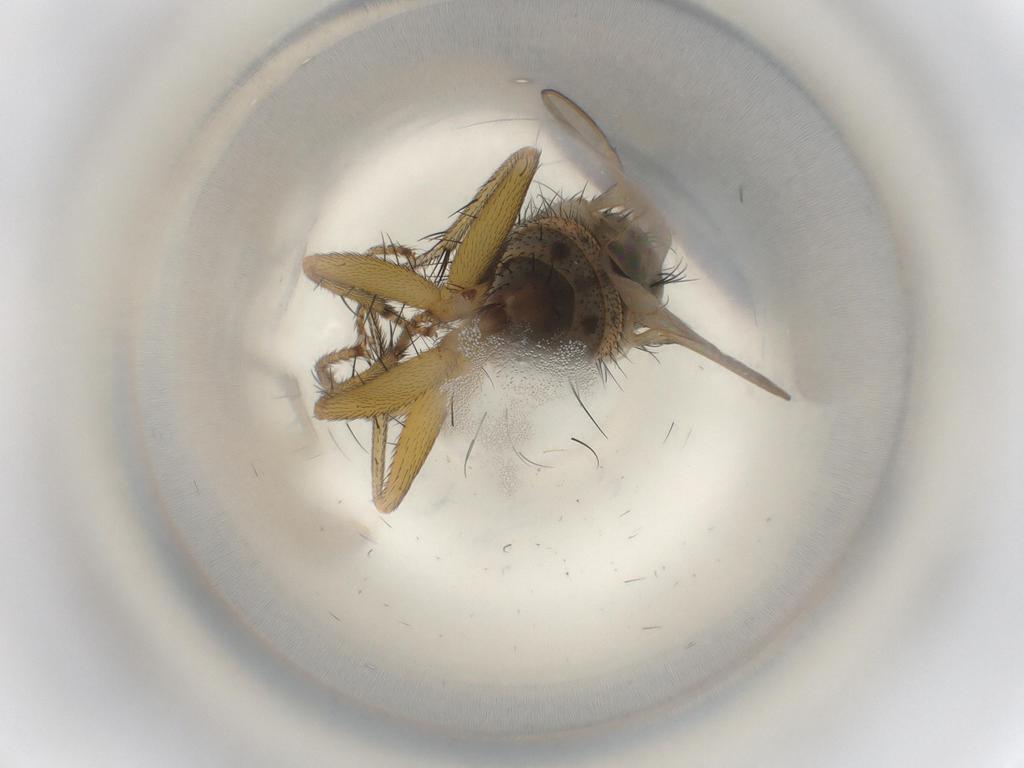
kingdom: Animalia
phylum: Arthropoda
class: Insecta
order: Diptera
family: Muscidae
